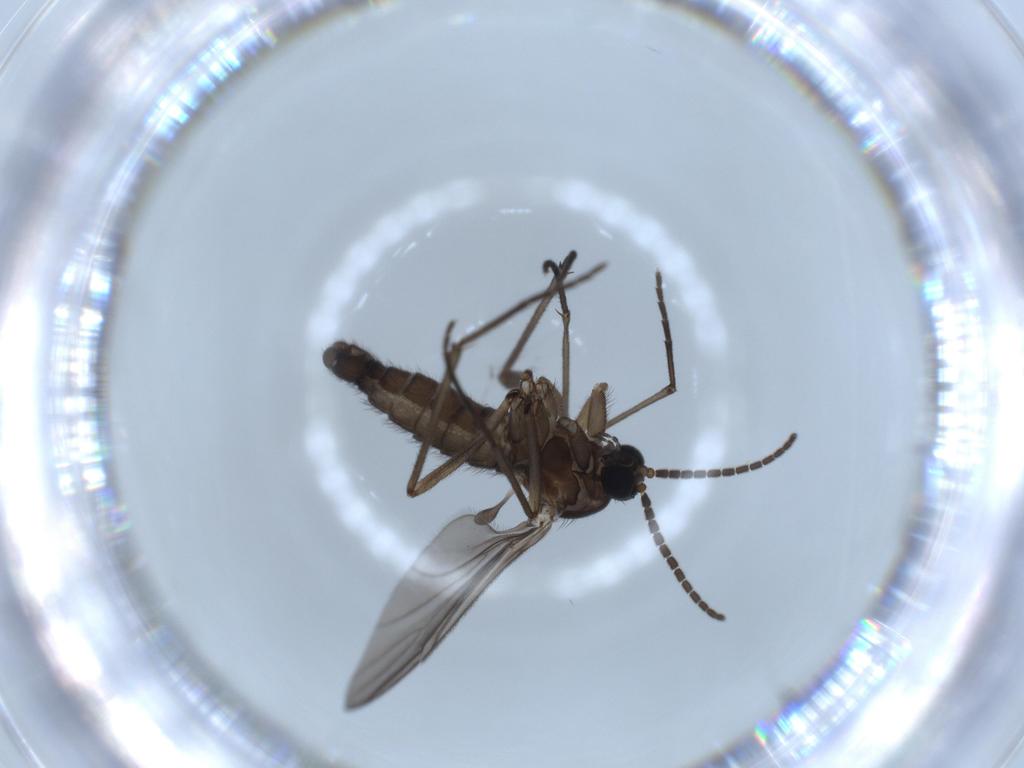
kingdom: Animalia
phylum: Arthropoda
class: Insecta
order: Diptera
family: Sciaridae
